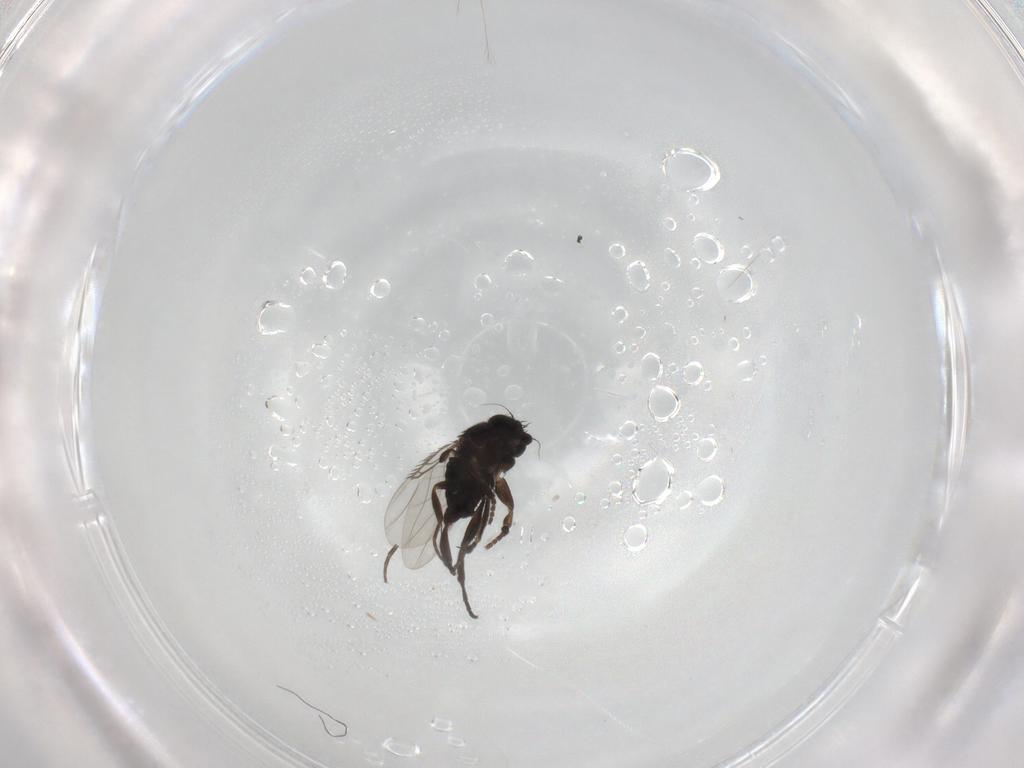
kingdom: Animalia
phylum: Arthropoda
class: Insecta
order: Diptera
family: Phoridae
